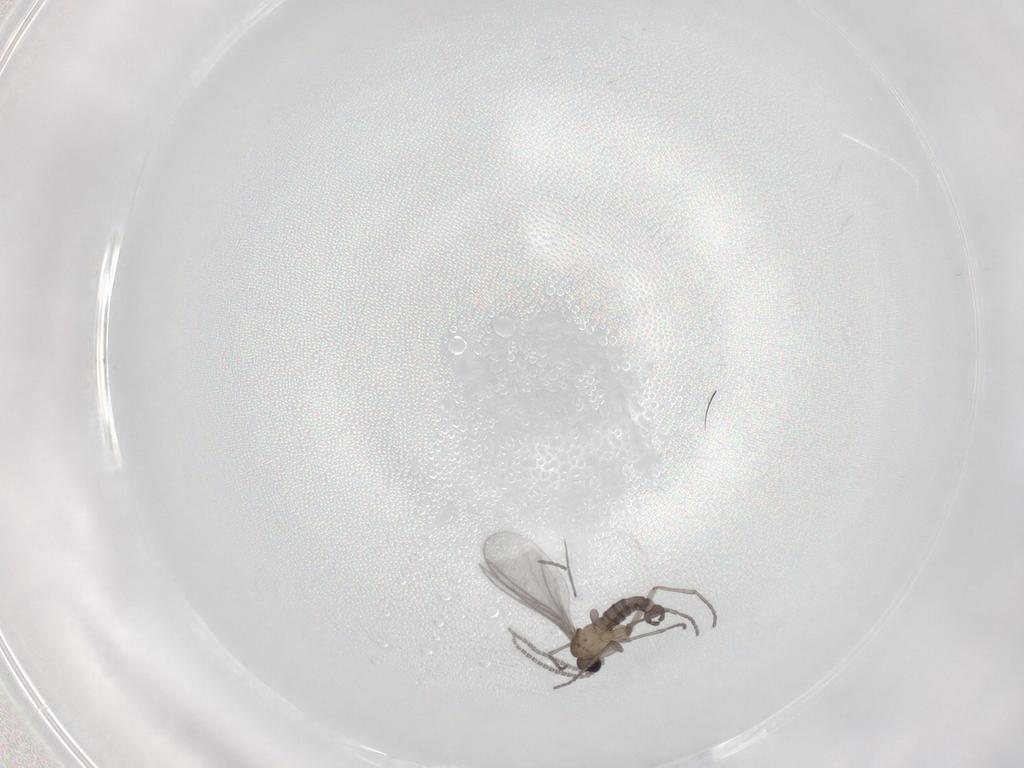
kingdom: Animalia
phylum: Arthropoda
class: Insecta
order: Diptera
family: Sciaridae
